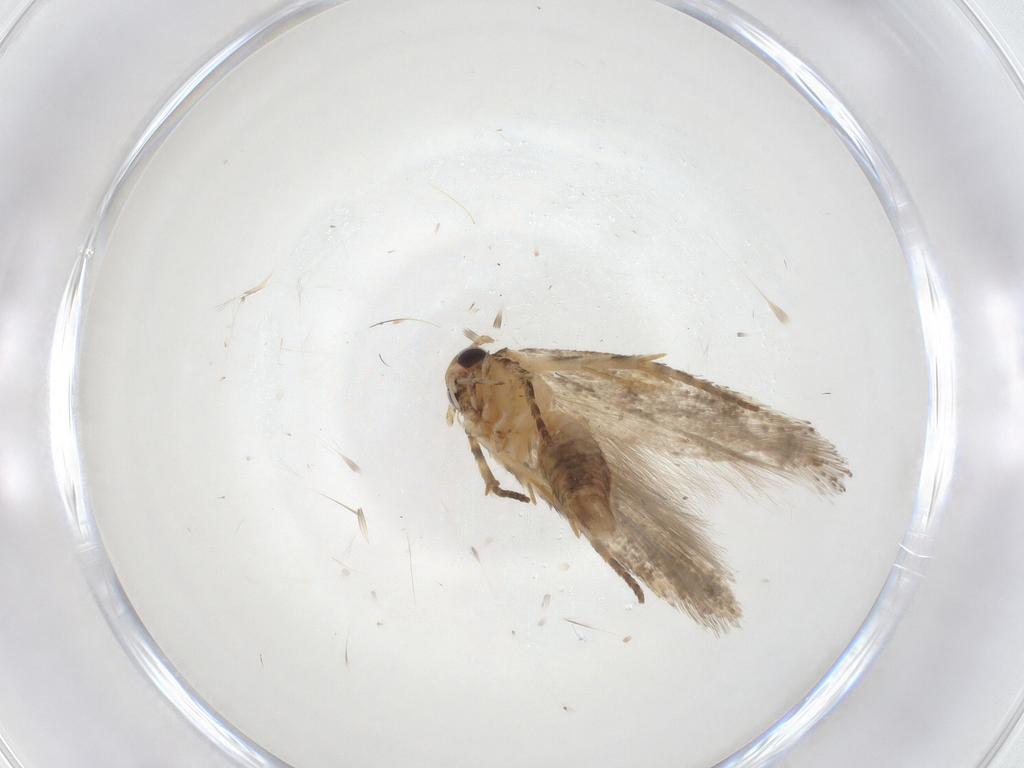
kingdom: Animalia
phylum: Arthropoda
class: Insecta
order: Lepidoptera
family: Gelechiidae
